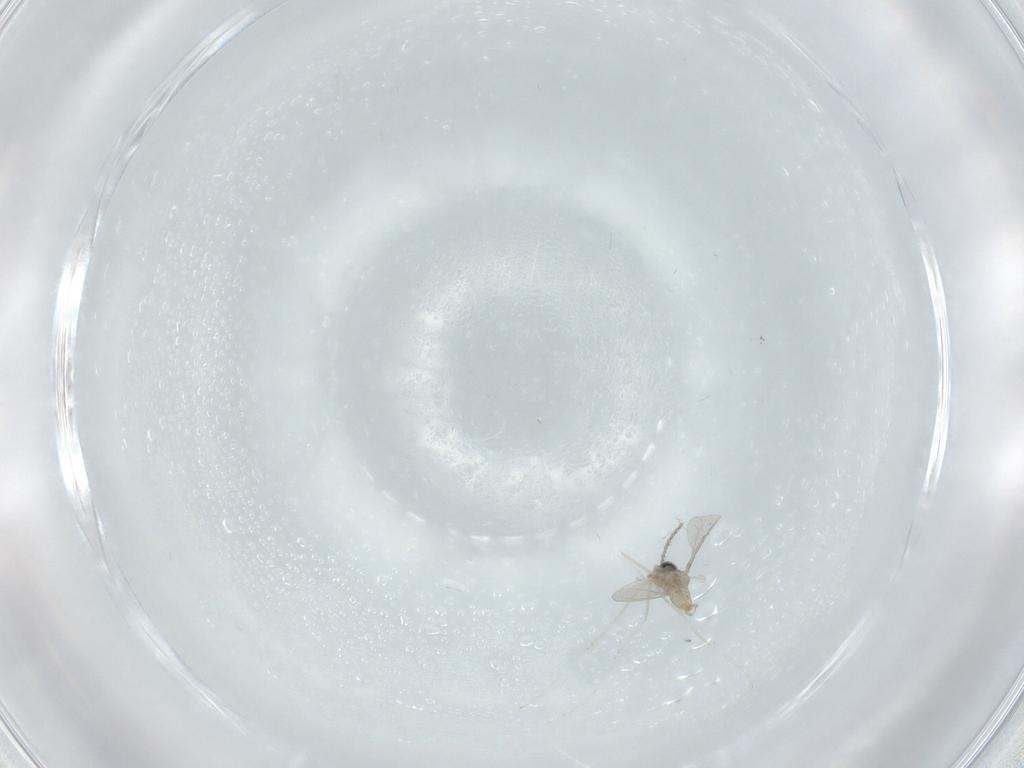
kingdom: Animalia
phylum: Arthropoda
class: Insecta
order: Diptera
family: Cecidomyiidae
